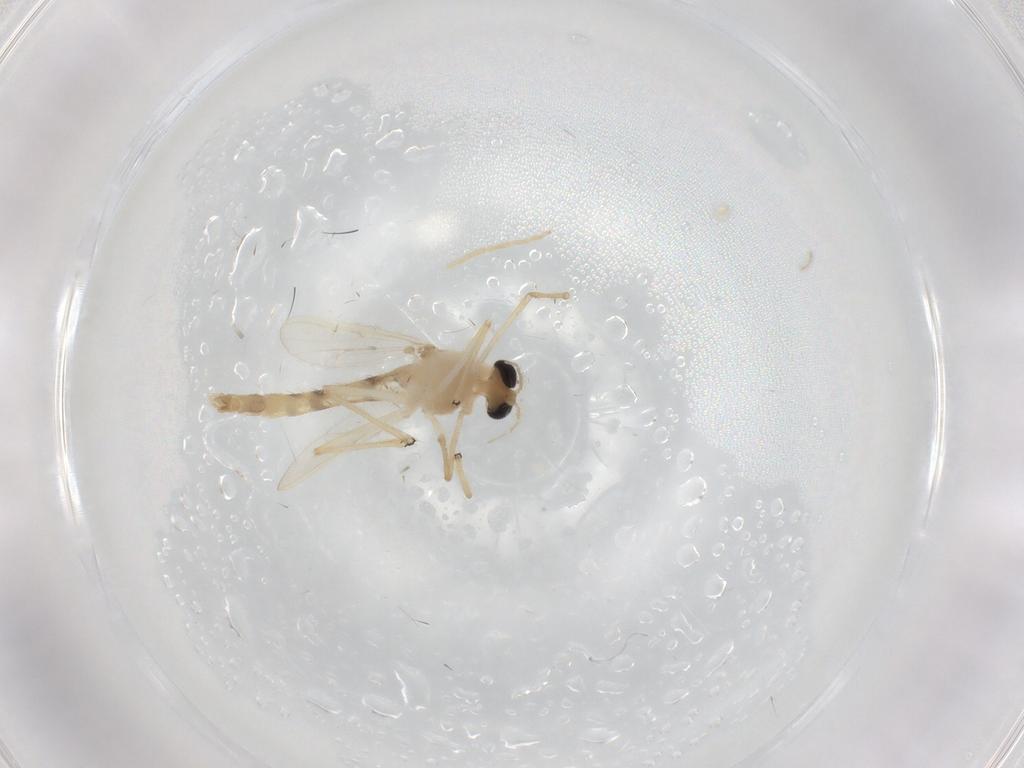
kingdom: Animalia
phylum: Arthropoda
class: Insecta
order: Diptera
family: Chironomidae
